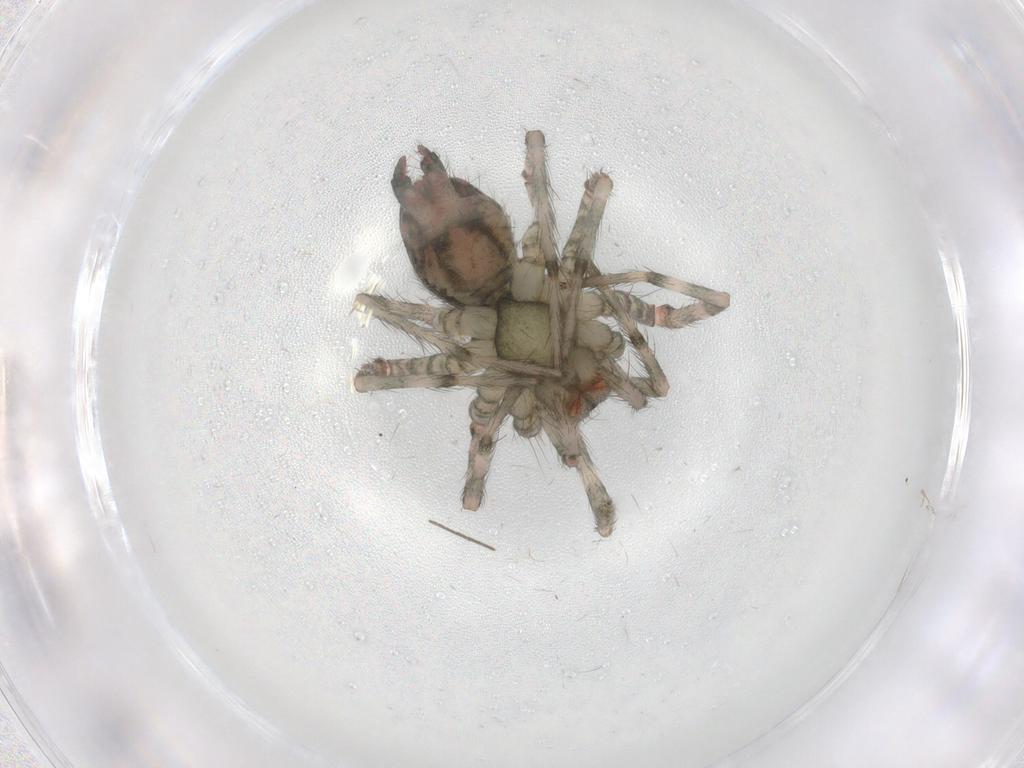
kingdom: Animalia
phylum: Arthropoda
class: Arachnida
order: Araneae
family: Agelenidae
